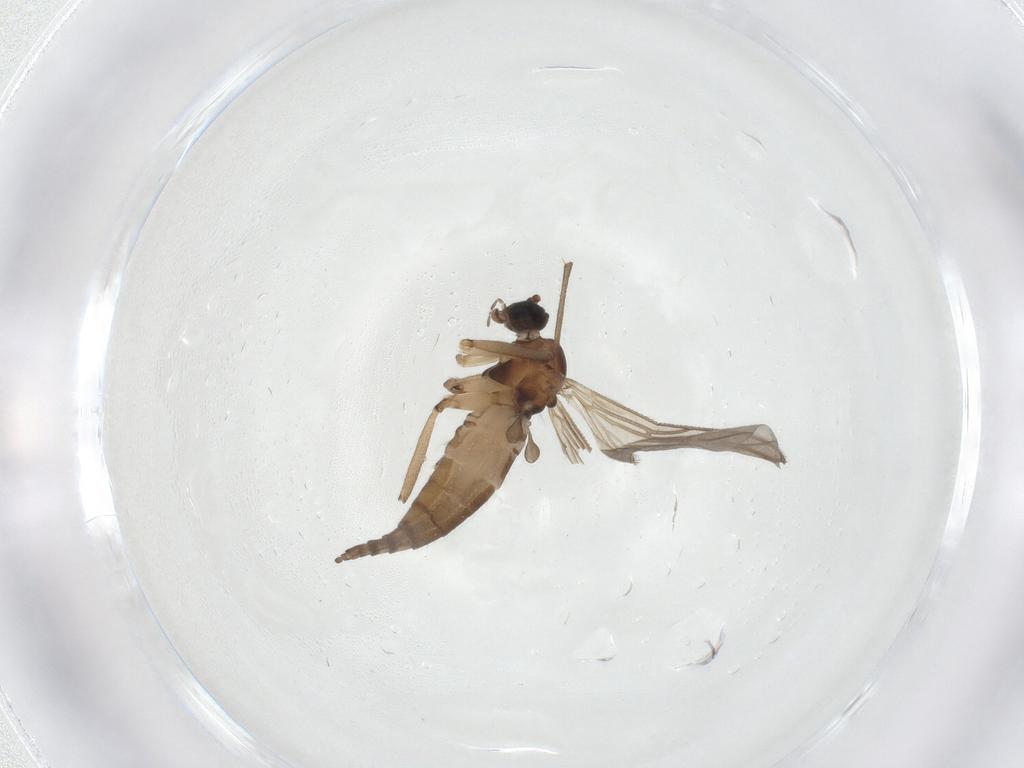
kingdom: Animalia
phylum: Arthropoda
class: Insecta
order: Diptera
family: Sciaridae
